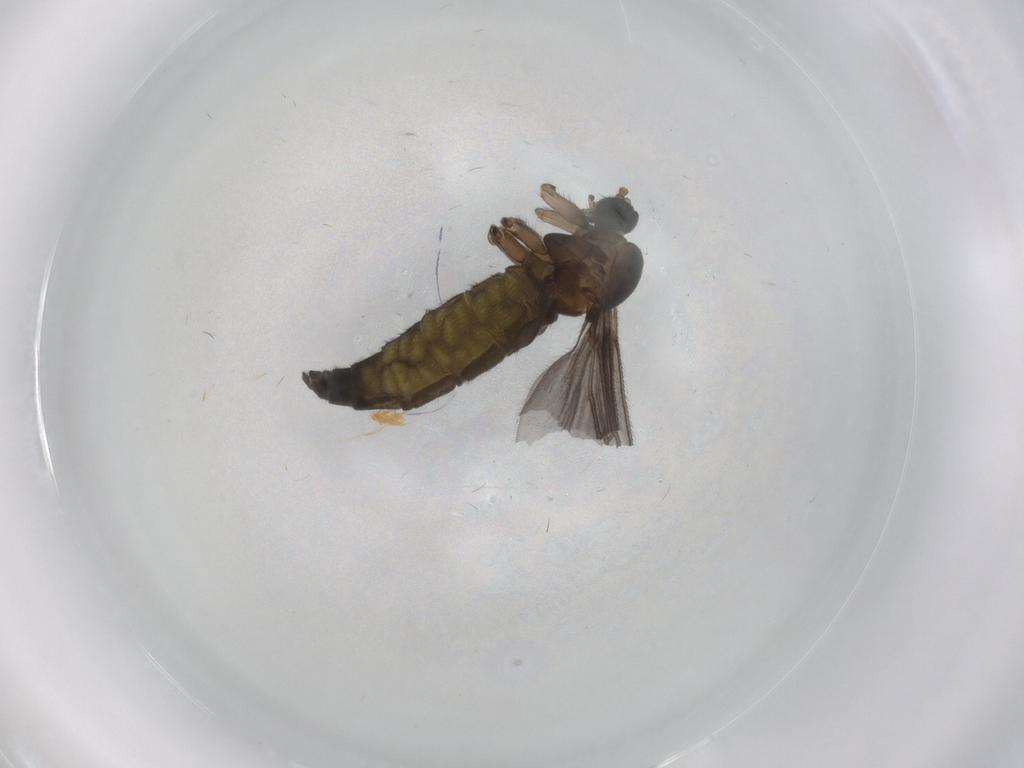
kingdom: Animalia
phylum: Arthropoda
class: Insecta
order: Diptera
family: Sciaridae
